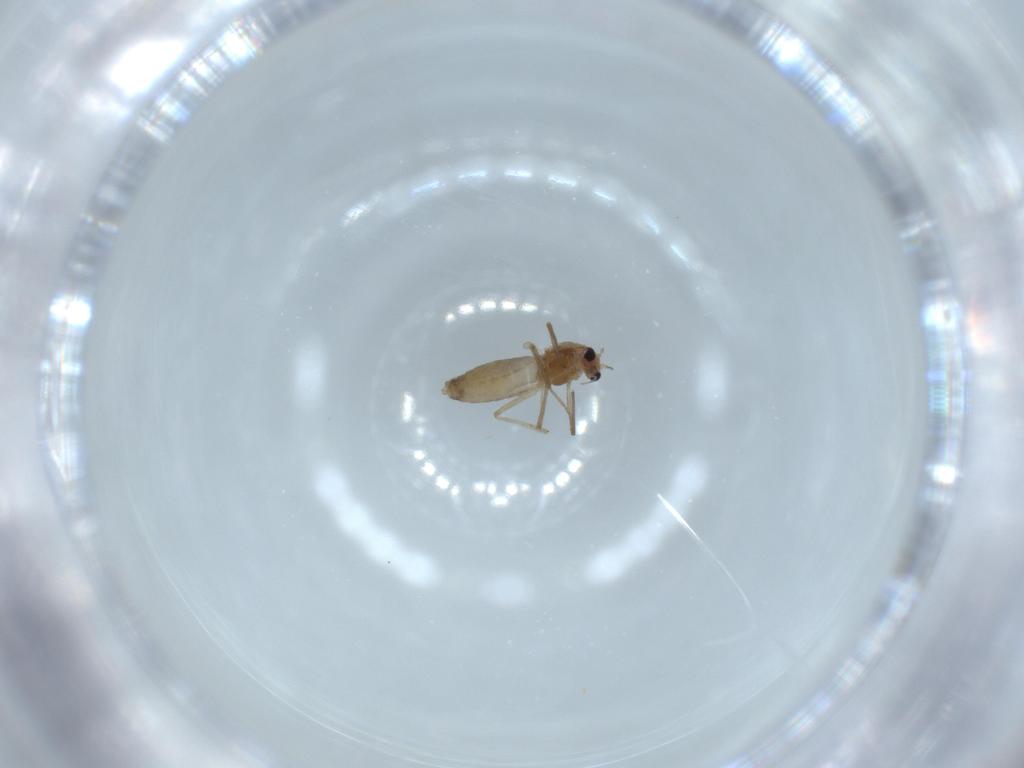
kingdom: Animalia
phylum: Arthropoda
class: Insecta
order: Diptera
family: Chironomidae
